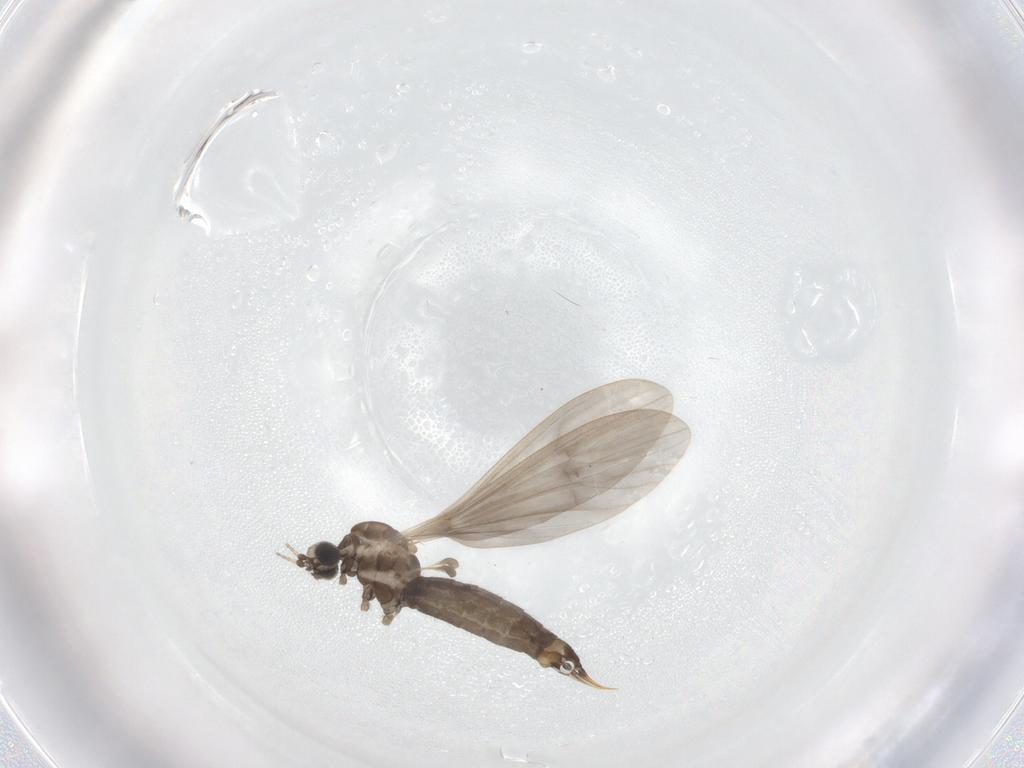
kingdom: Animalia
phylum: Arthropoda
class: Insecta
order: Diptera
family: Limoniidae
